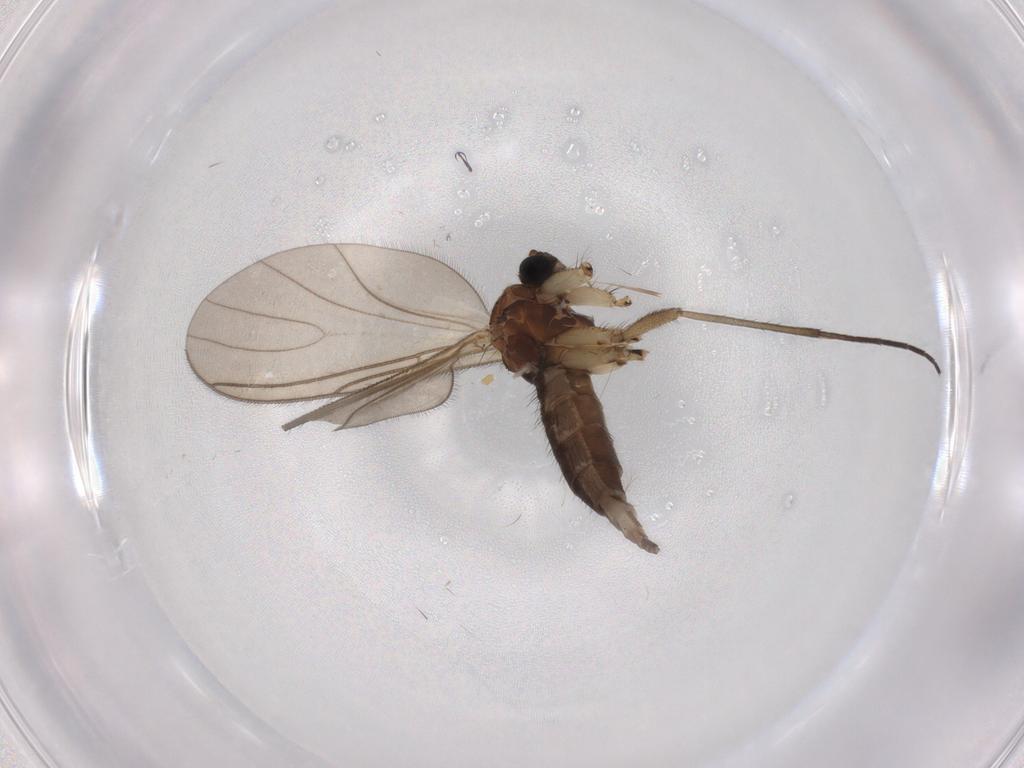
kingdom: Animalia
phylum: Arthropoda
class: Insecta
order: Diptera
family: Sciaridae
